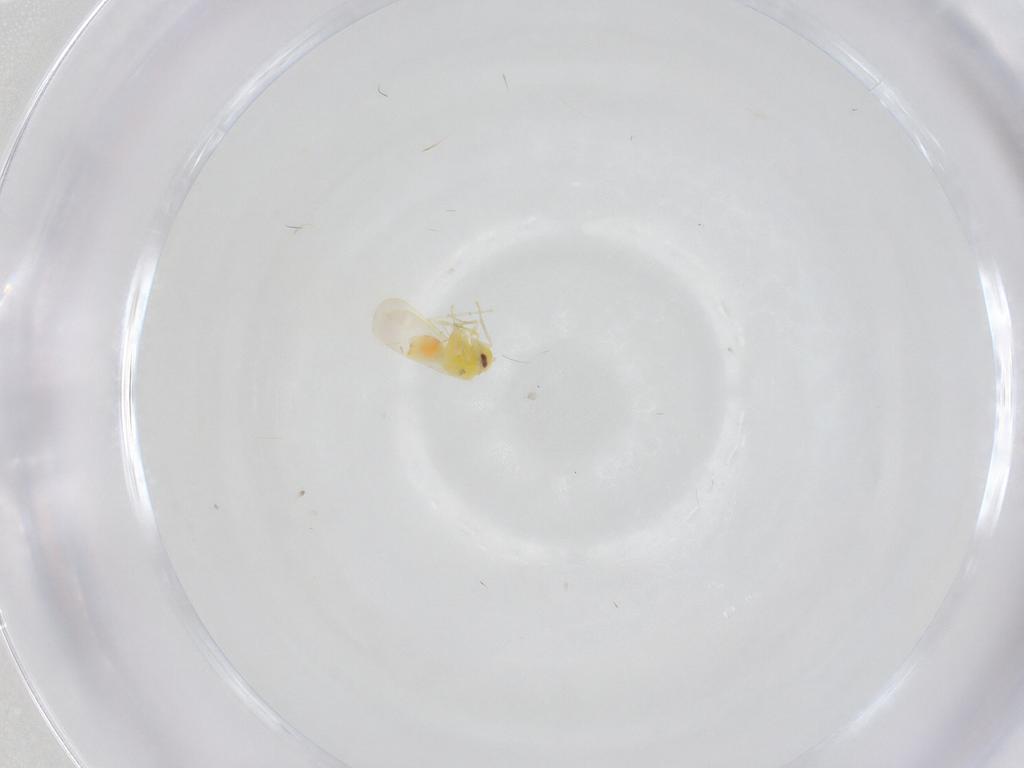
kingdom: Animalia
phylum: Arthropoda
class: Insecta
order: Hemiptera
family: Aleyrodidae
